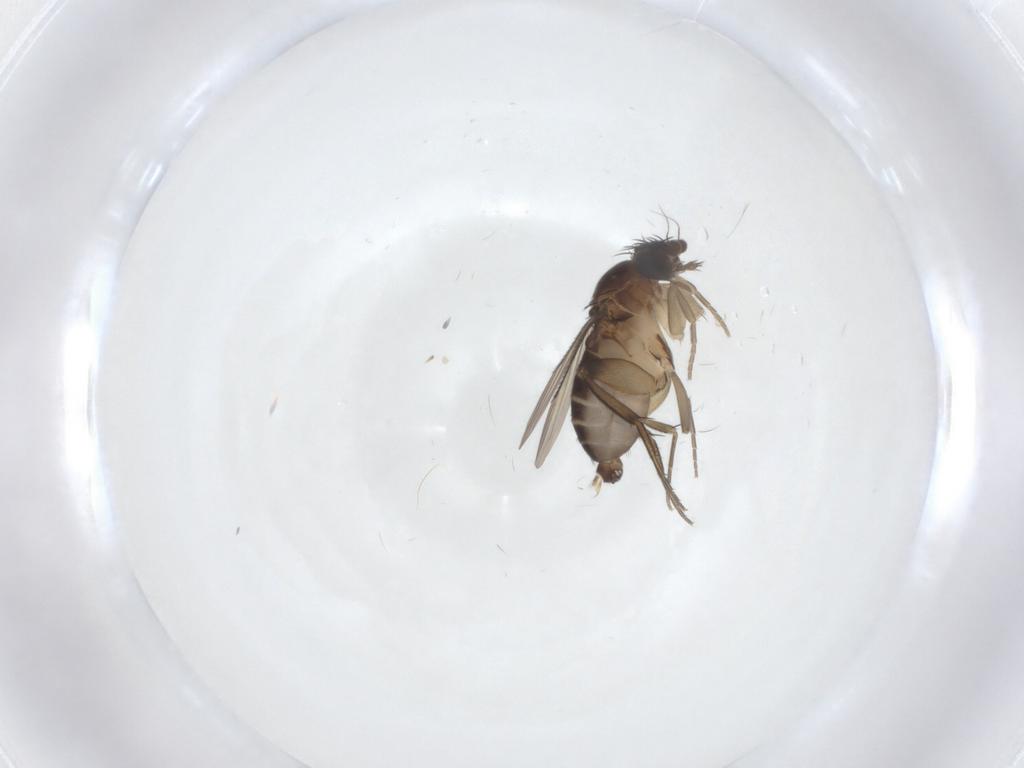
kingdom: Animalia
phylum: Arthropoda
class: Insecta
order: Diptera
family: Phoridae
